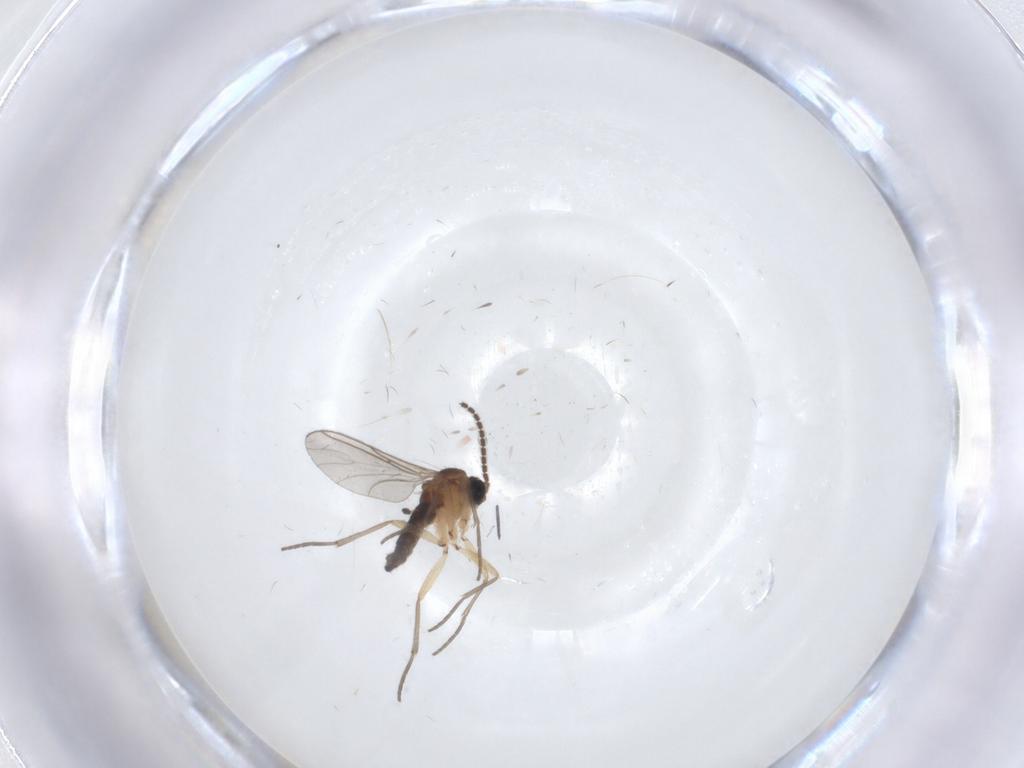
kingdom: Animalia
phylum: Arthropoda
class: Insecta
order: Diptera
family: Sciaridae
